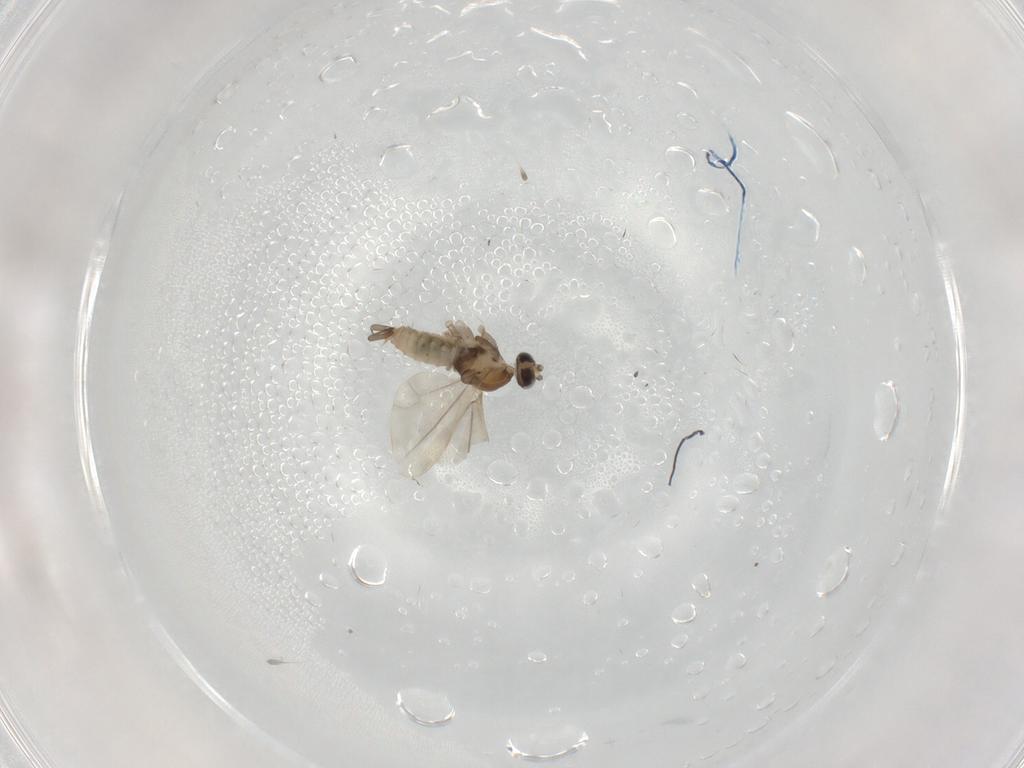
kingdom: Animalia
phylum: Arthropoda
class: Insecta
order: Diptera
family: Cecidomyiidae
